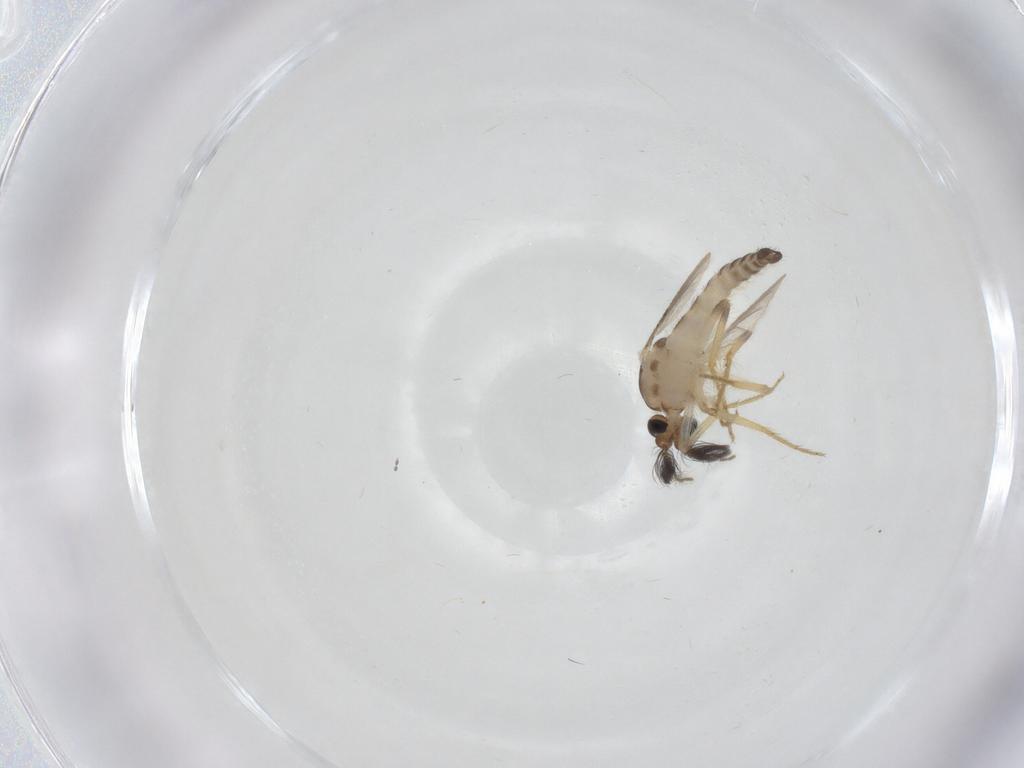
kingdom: Animalia
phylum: Arthropoda
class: Insecta
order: Diptera
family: Ceratopogonidae
